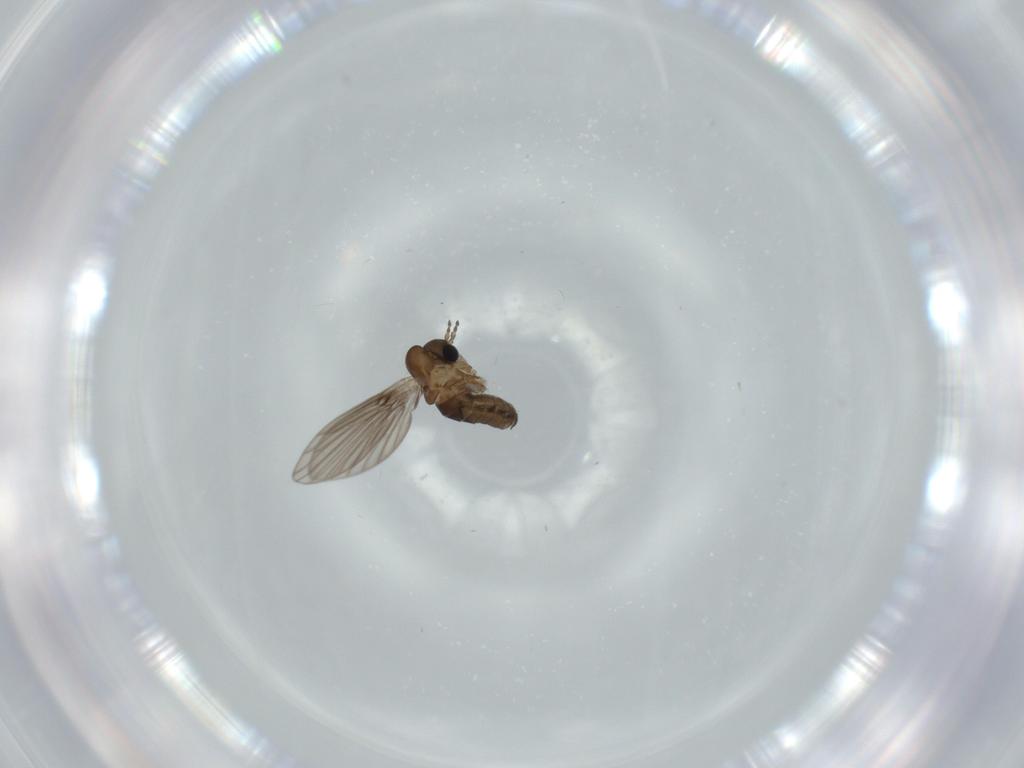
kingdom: Animalia
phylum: Arthropoda
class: Insecta
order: Diptera
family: Psychodidae
